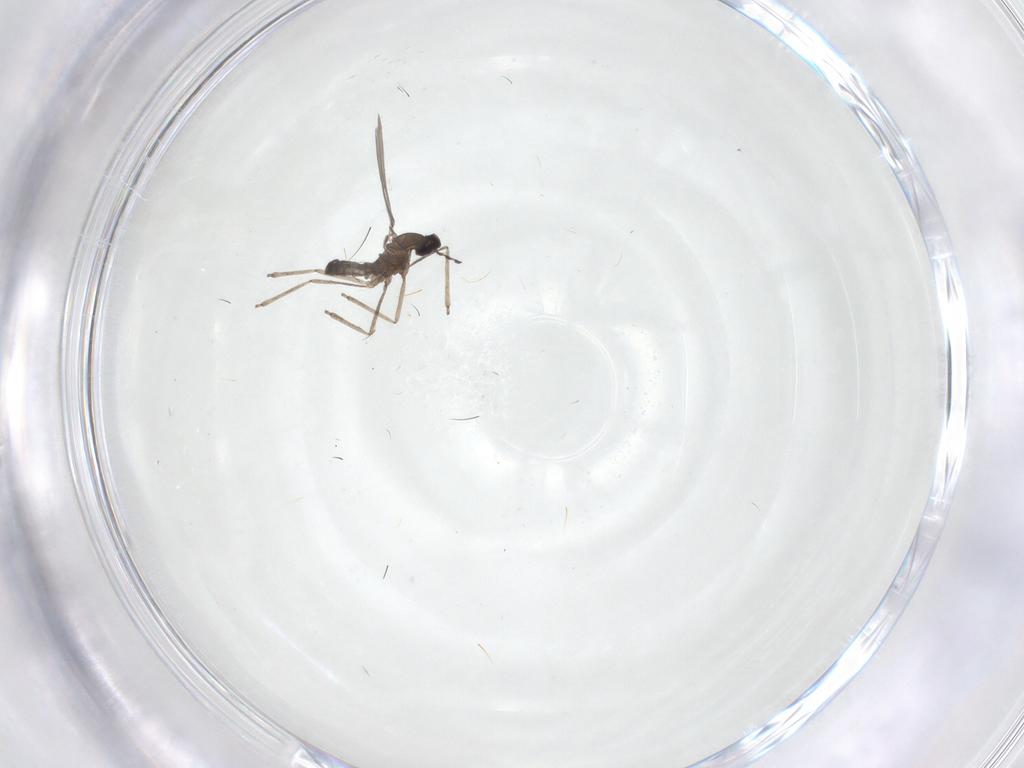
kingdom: Animalia
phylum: Arthropoda
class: Insecta
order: Diptera
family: Cecidomyiidae
